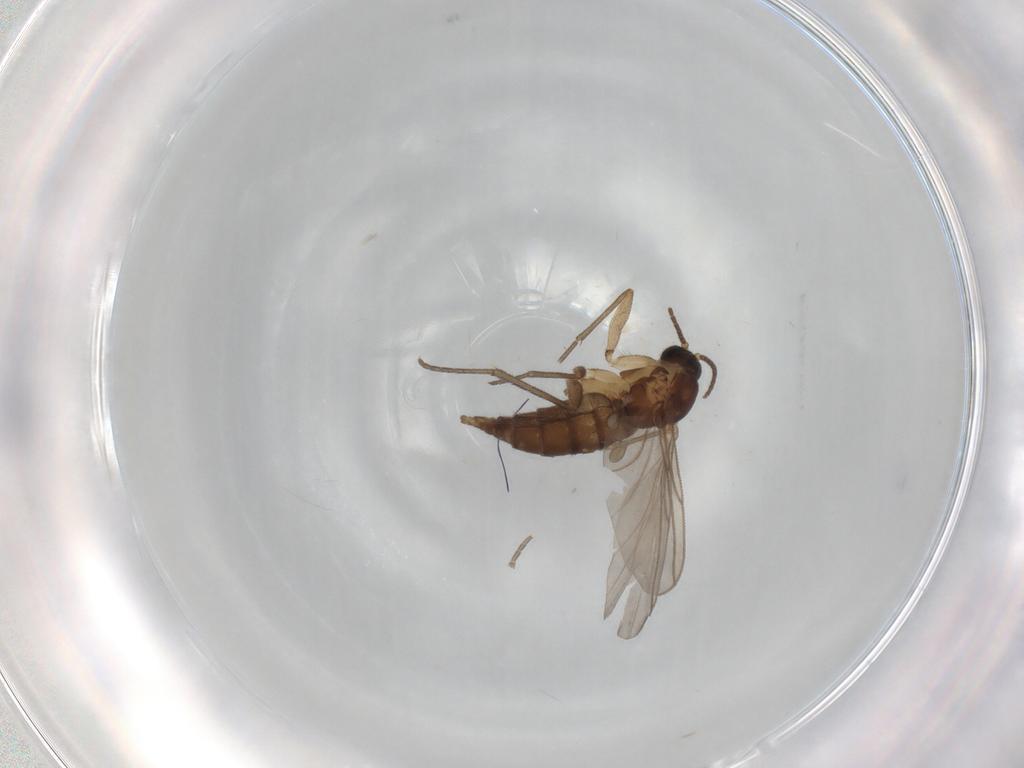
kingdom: Animalia
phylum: Arthropoda
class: Insecta
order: Diptera
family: Sciaridae
